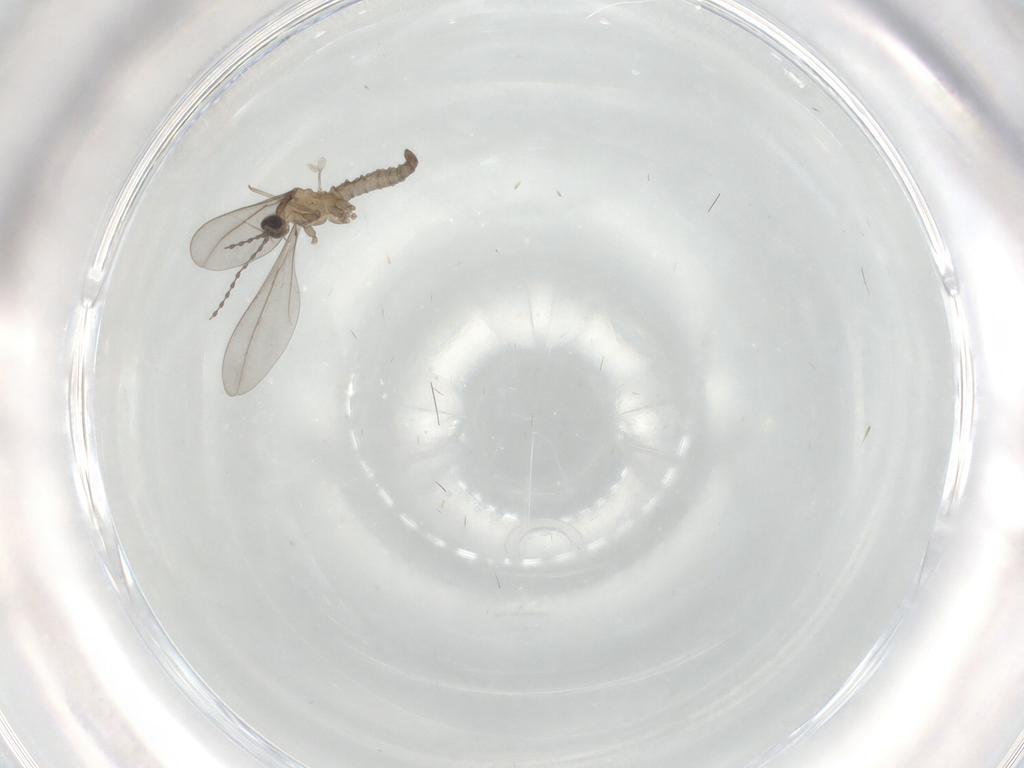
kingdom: Animalia
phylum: Arthropoda
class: Insecta
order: Diptera
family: Cecidomyiidae
